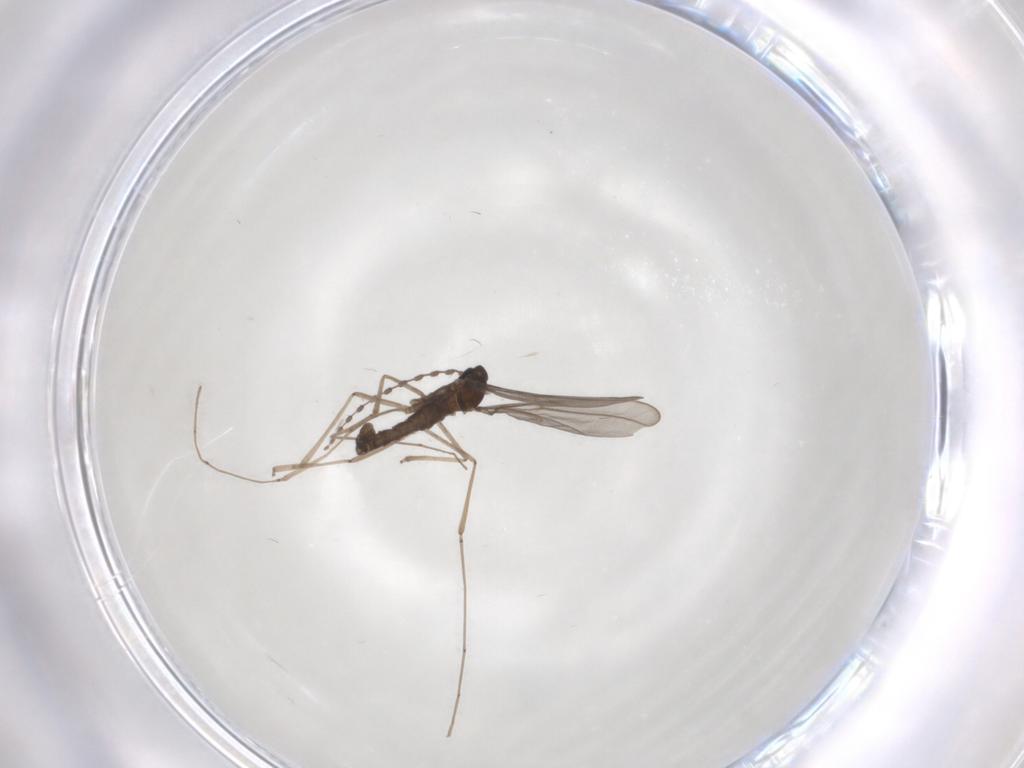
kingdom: Animalia
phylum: Arthropoda
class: Insecta
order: Diptera
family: Cecidomyiidae
